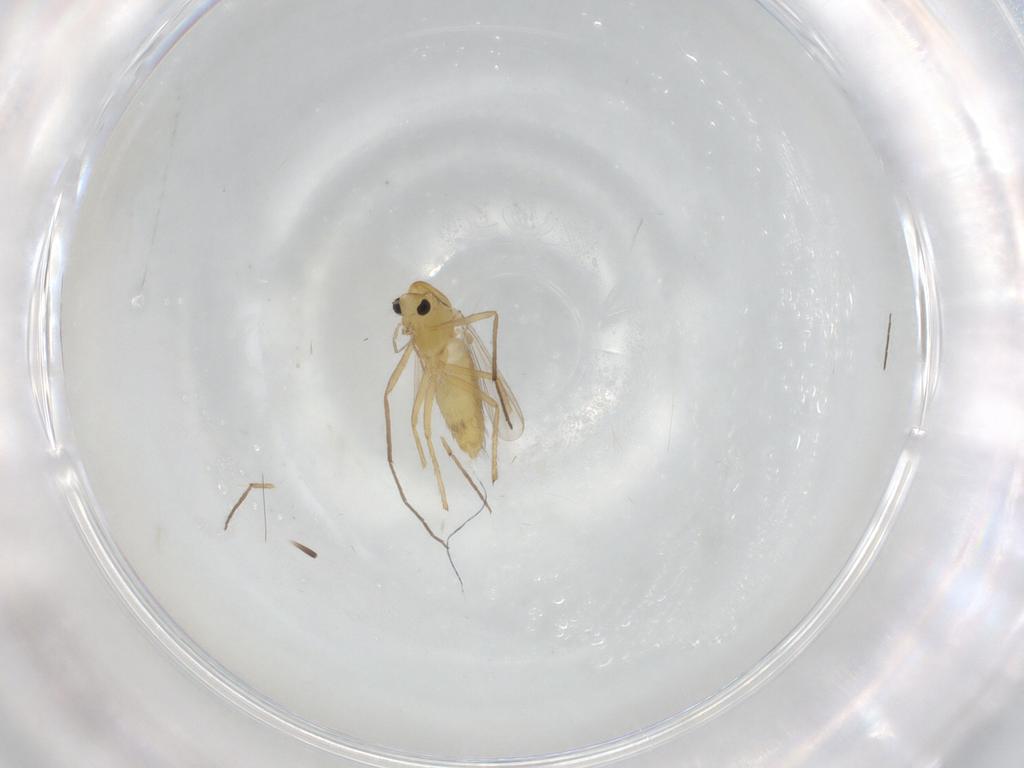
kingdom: Animalia
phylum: Arthropoda
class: Insecta
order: Diptera
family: Chironomidae
